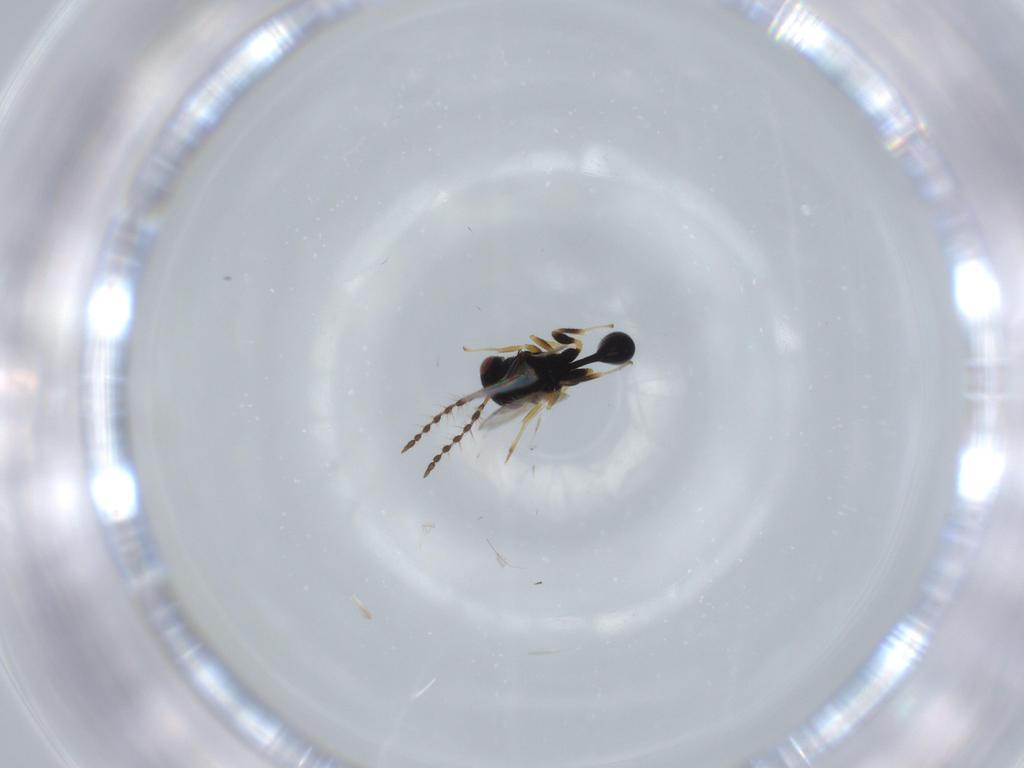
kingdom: Animalia
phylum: Arthropoda
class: Insecta
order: Hymenoptera
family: Eurytomidae
